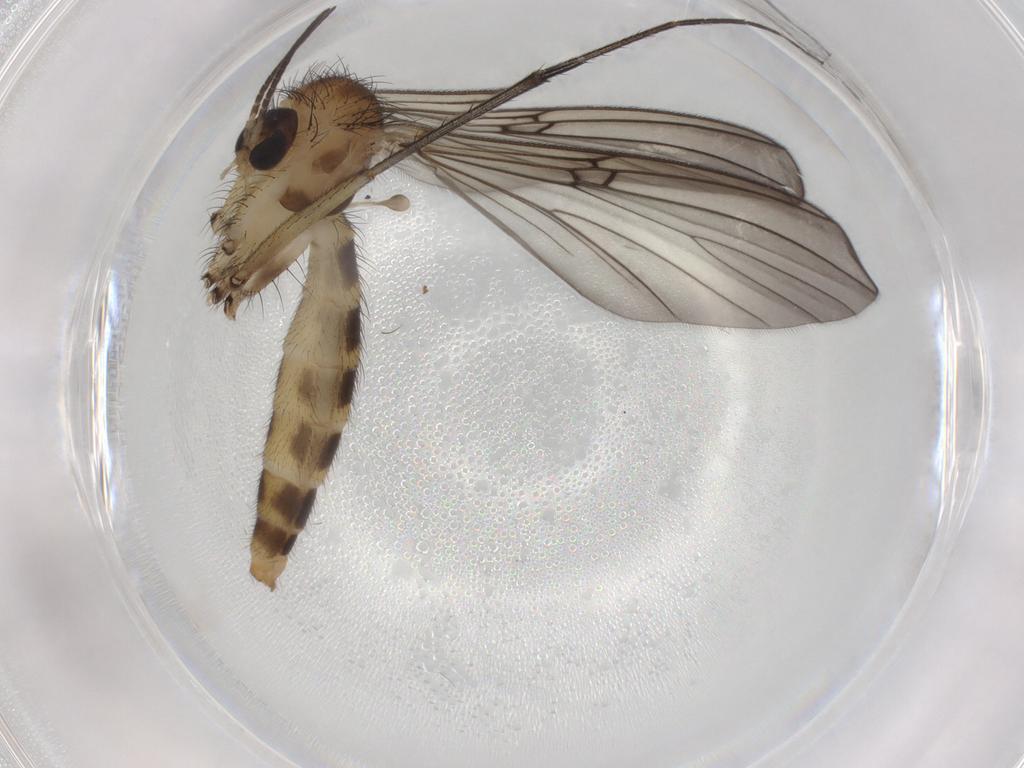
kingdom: Animalia
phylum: Arthropoda
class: Insecta
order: Diptera
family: Mycetophilidae
